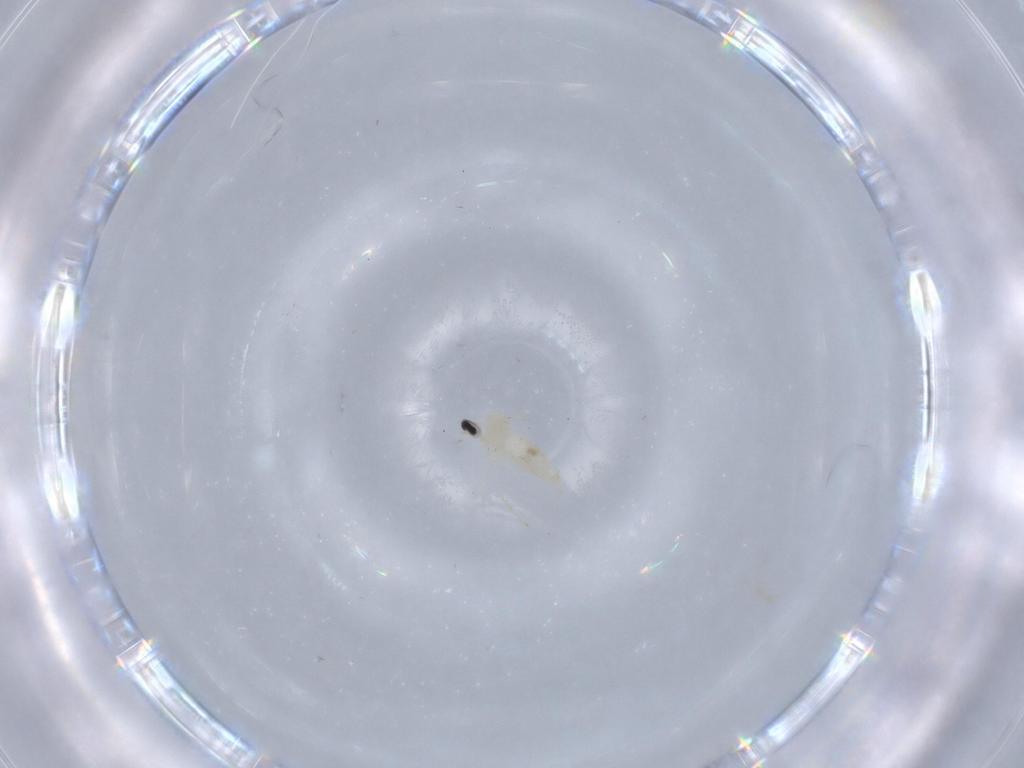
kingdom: Animalia
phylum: Arthropoda
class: Insecta
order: Diptera
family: Cecidomyiidae
